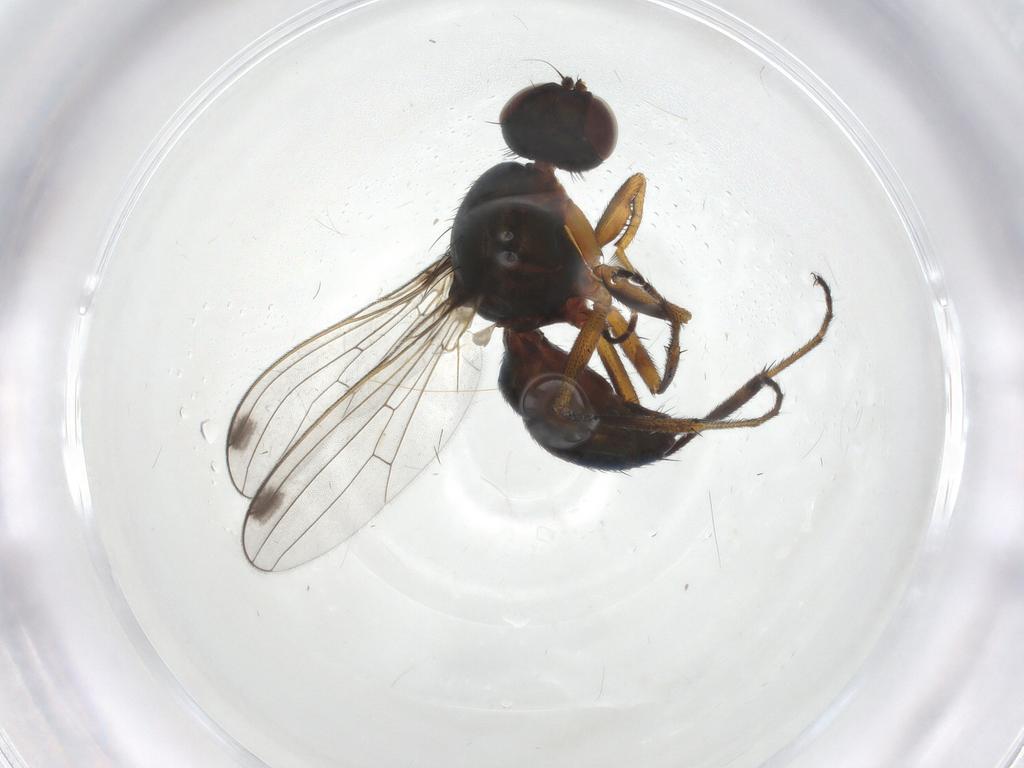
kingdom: Animalia
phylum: Arthropoda
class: Insecta
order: Diptera
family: Sepsidae
